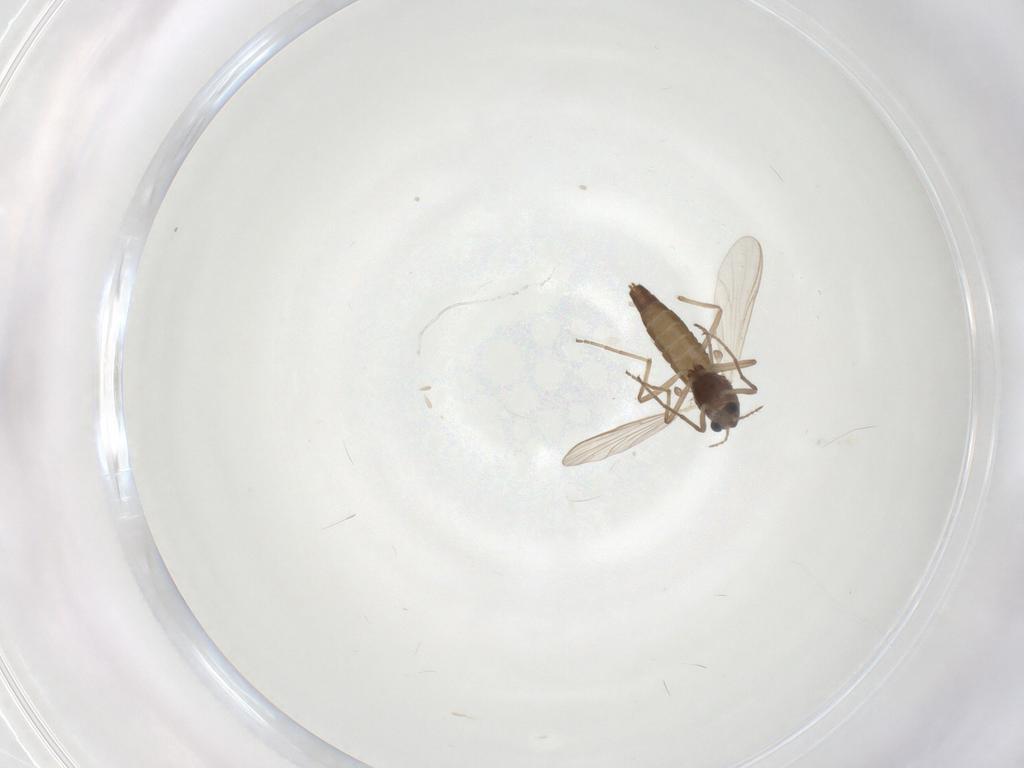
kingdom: Animalia
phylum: Arthropoda
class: Insecta
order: Diptera
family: Chironomidae
